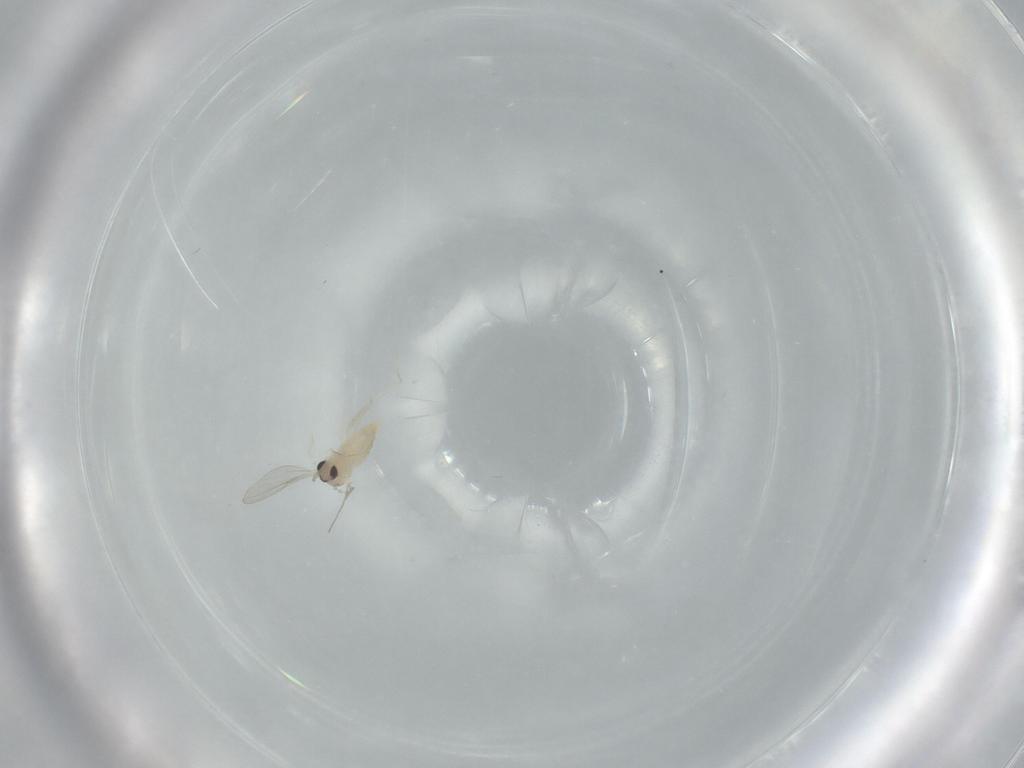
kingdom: Animalia
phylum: Arthropoda
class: Insecta
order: Diptera
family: Cecidomyiidae
